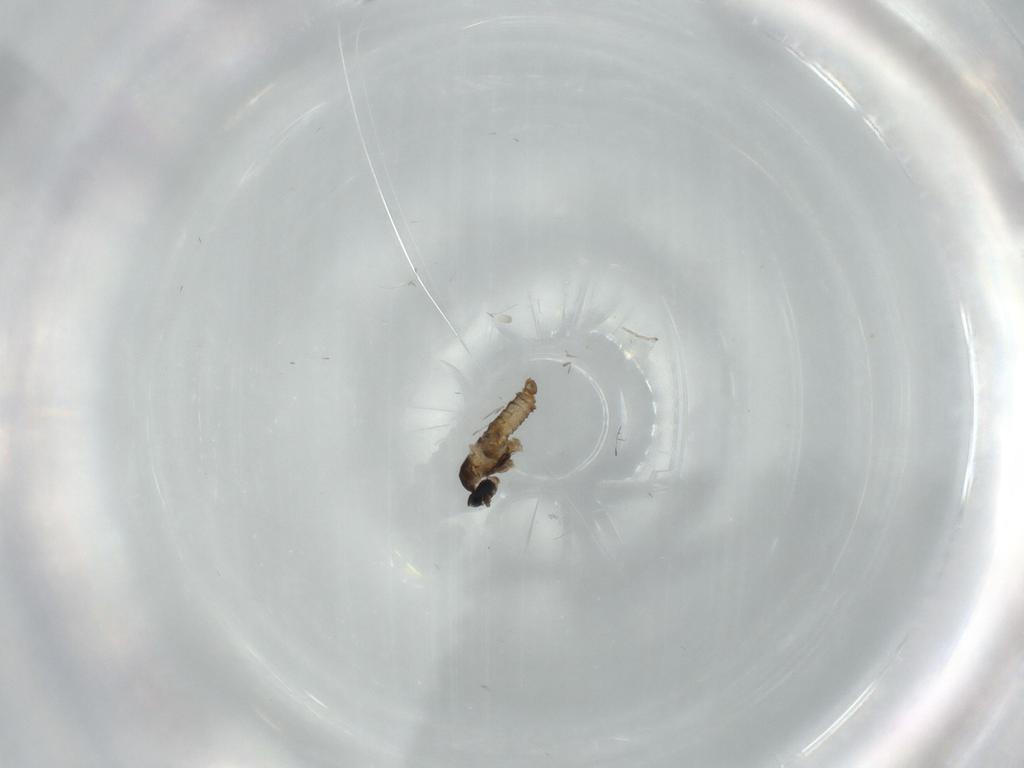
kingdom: Animalia
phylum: Arthropoda
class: Insecta
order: Diptera
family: Cecidomyiidae
